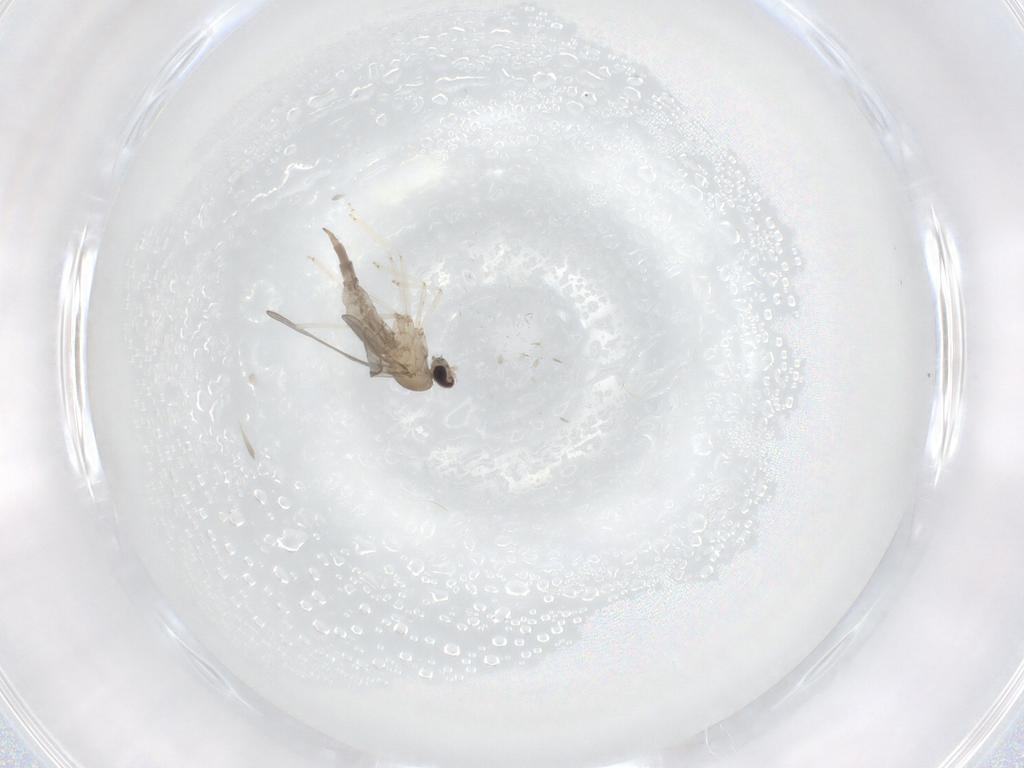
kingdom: Animalia
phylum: Arthropoda
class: Insecta
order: Diptera
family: Cecidomyiidae
